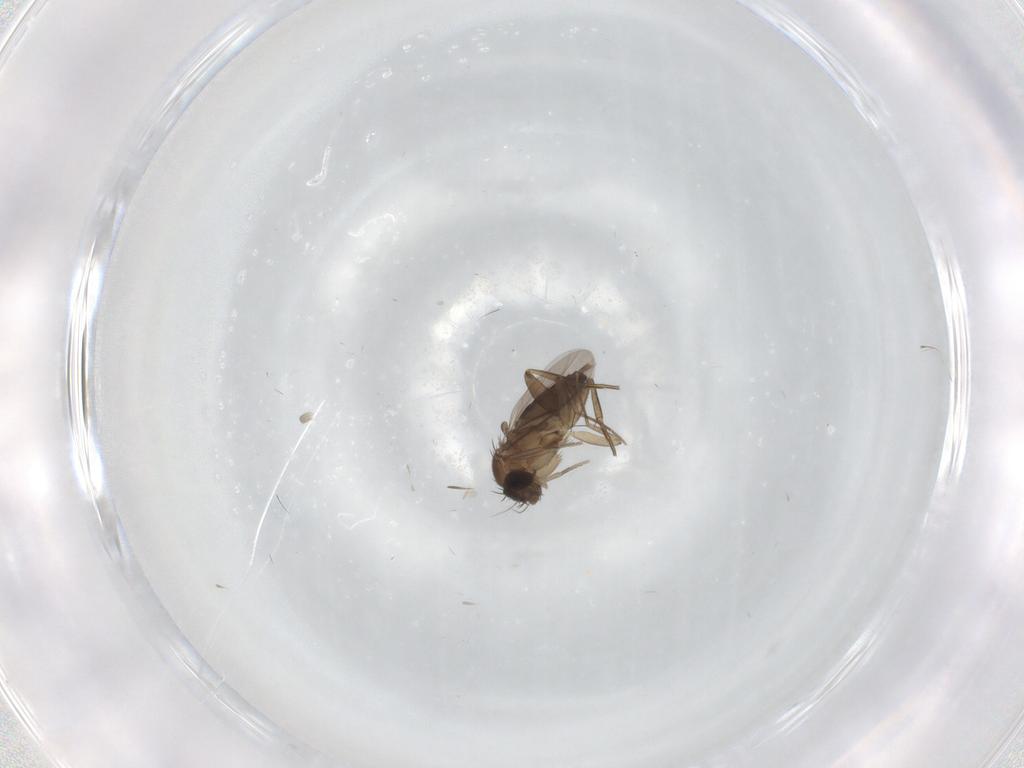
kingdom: Animalia
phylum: Arthropoda
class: Insecta
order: Diptera
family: Phoridae
